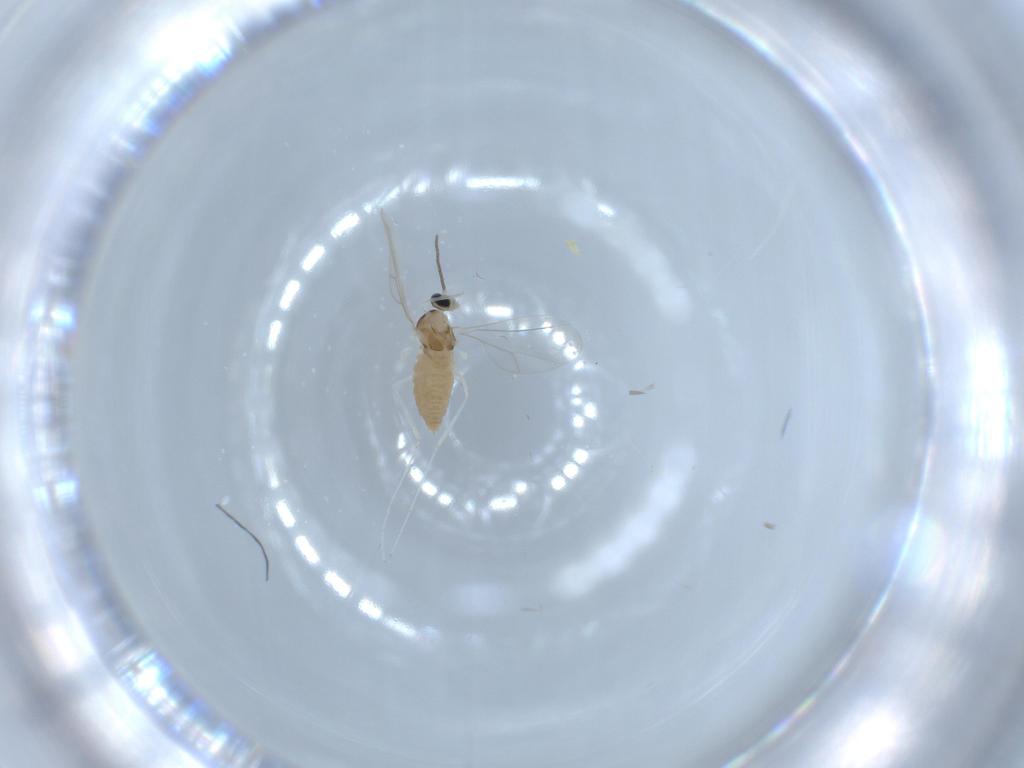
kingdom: Animalia
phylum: Arthropoda
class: Insecta
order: Diptera
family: Cecidomyiidae
